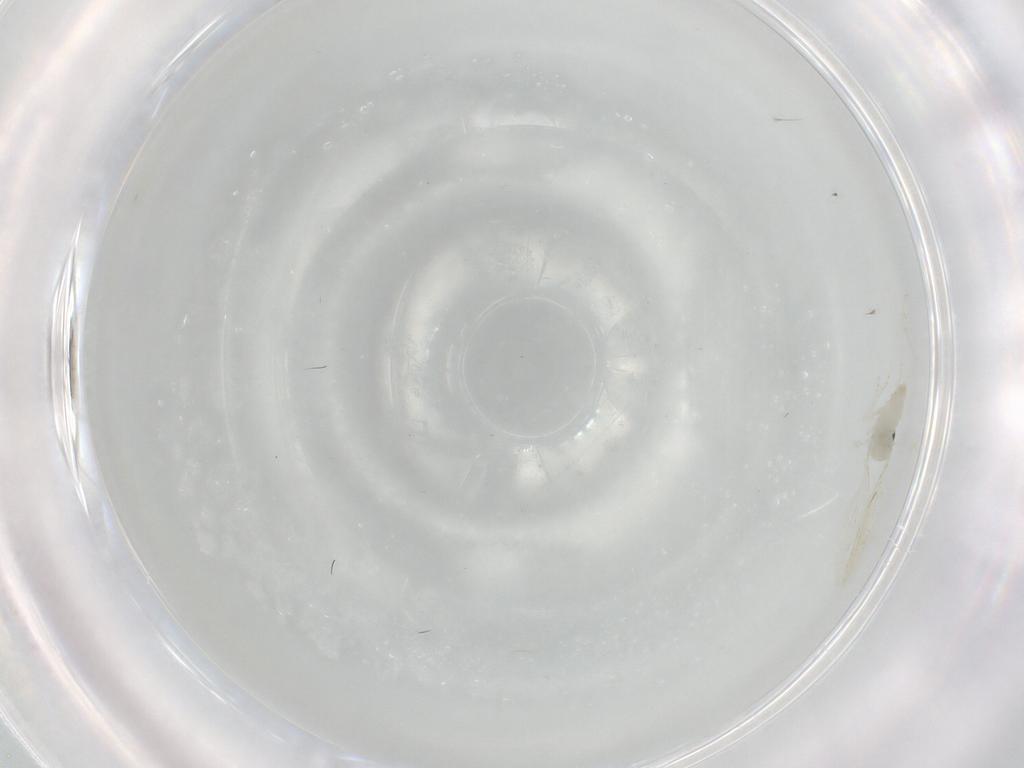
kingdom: Animalia
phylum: Arthropoda
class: Insecta
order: Diptera
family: Cecidomyiidae
